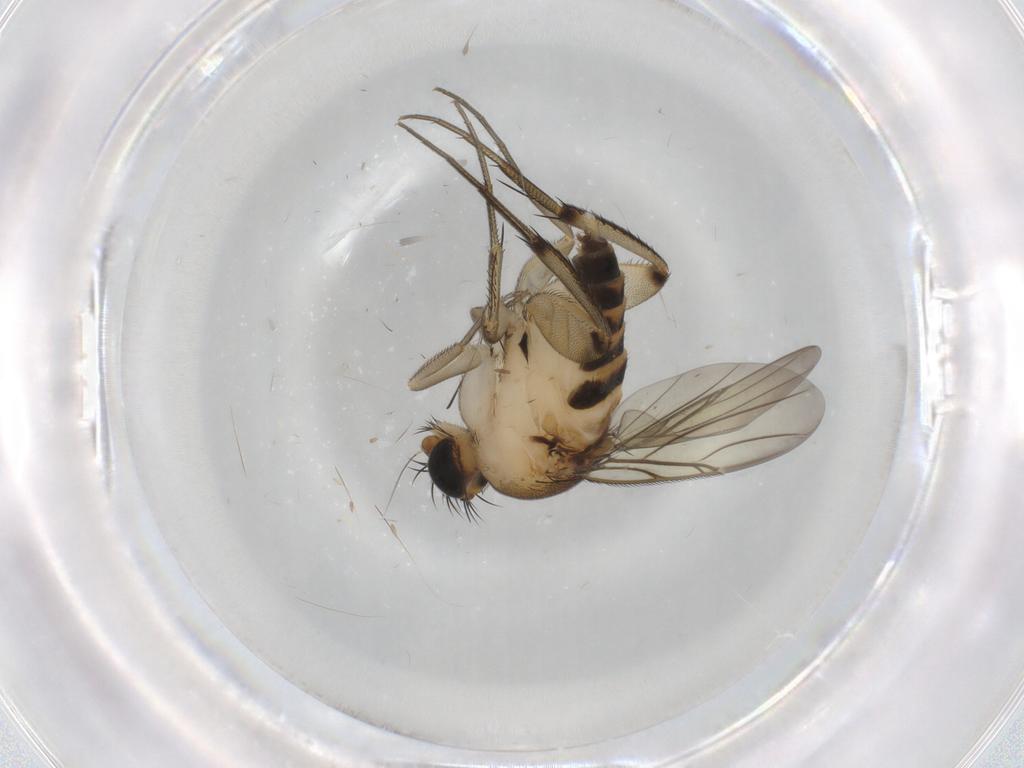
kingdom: Animalia
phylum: Arthropoda
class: Insecta
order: Diptera
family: Phoridae
